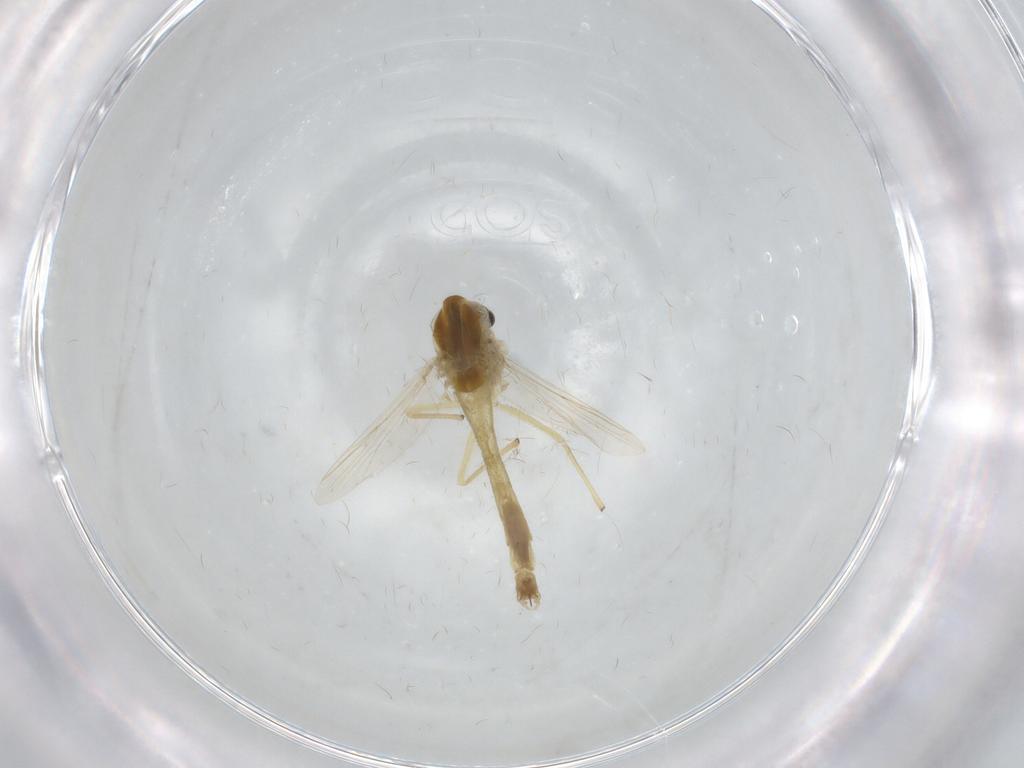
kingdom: Animalia
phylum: Arthropoda
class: Insecta
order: Diptera
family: Chironomidae
